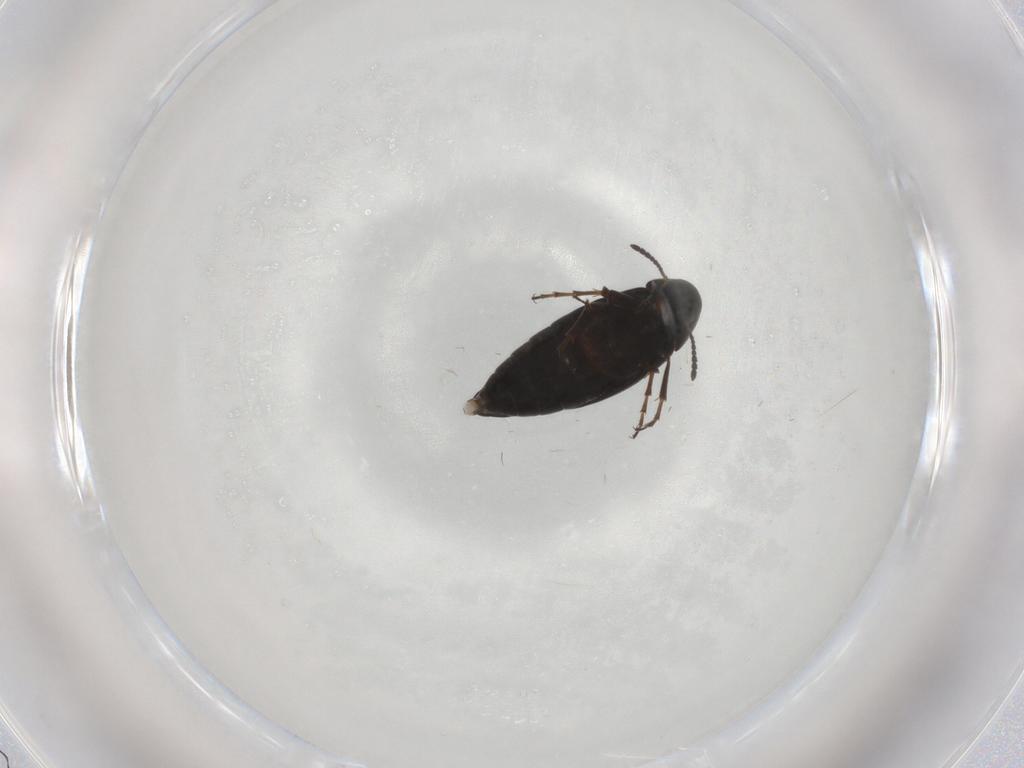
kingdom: Animalia
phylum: Arthropoda
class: Insecta
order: Coleoptera
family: Scraptiidae
